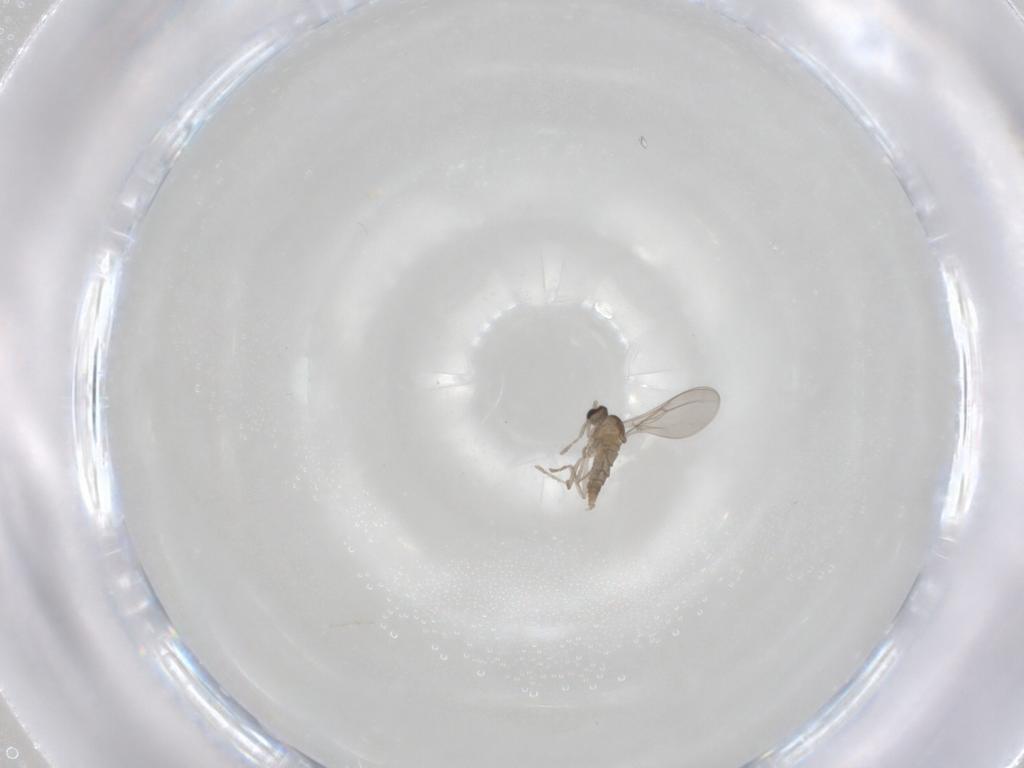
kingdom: Animalia
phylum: Arthropoda
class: Insecta
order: Diptera
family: Cecidomyiidae
